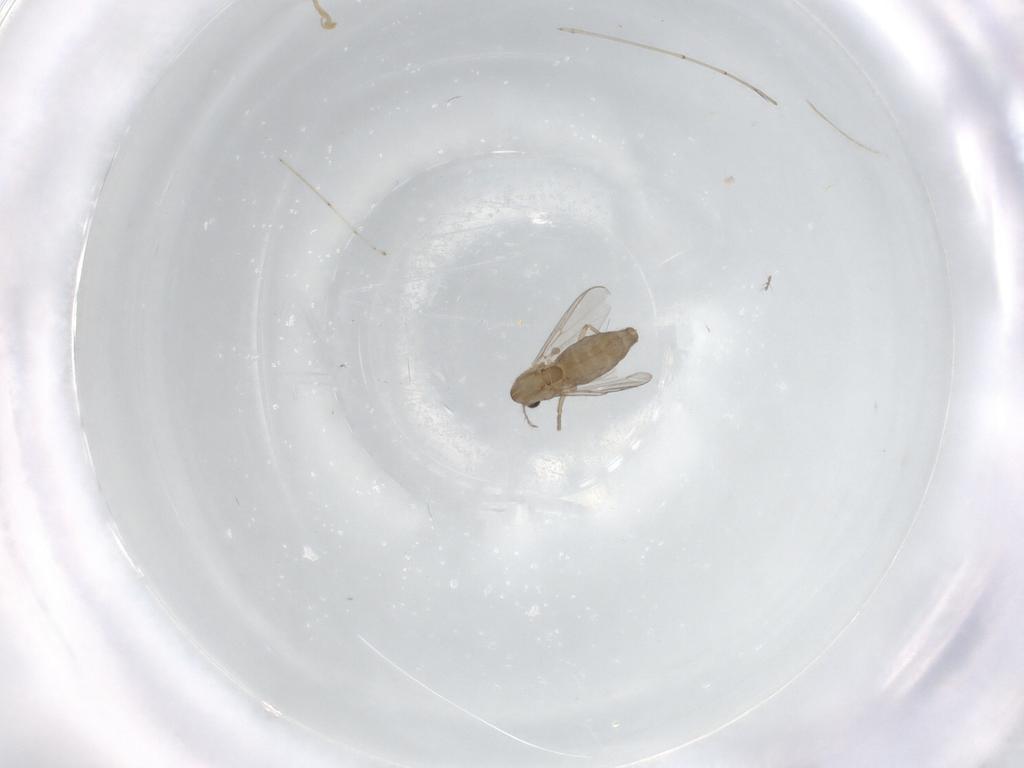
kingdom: Animalia
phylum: Arthropoda
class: Insecta
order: Diptera
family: Chironomidae
